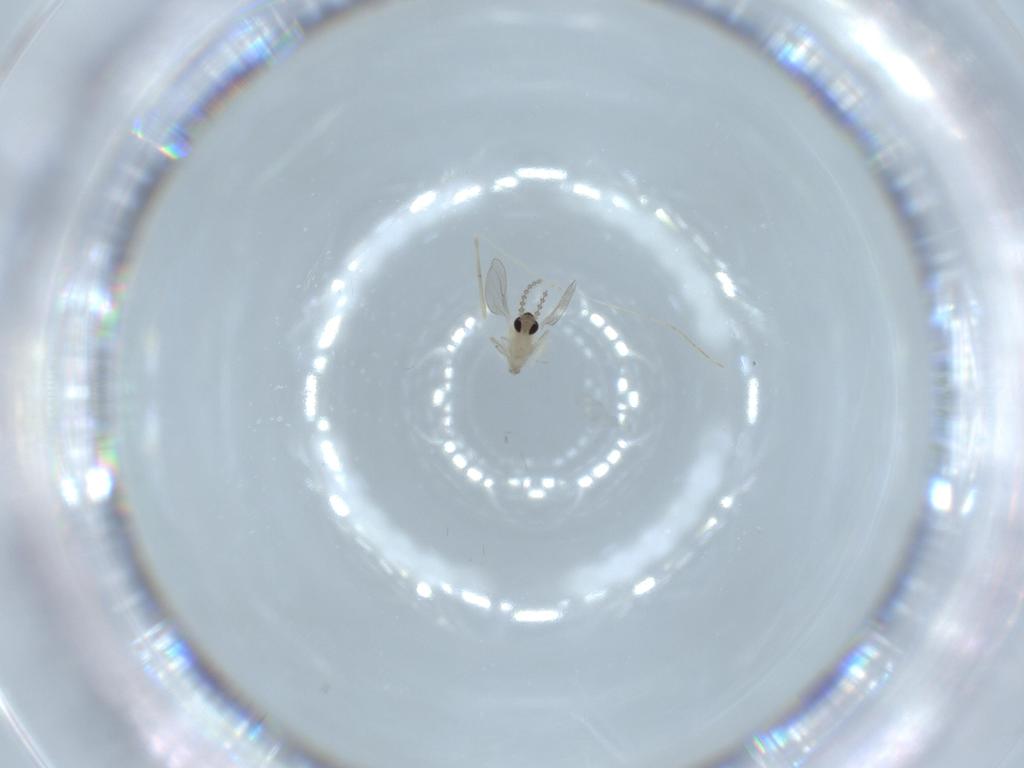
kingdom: Animalia
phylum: Arthropoda
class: Insecta
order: Diptera
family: Cecidomyiidae
